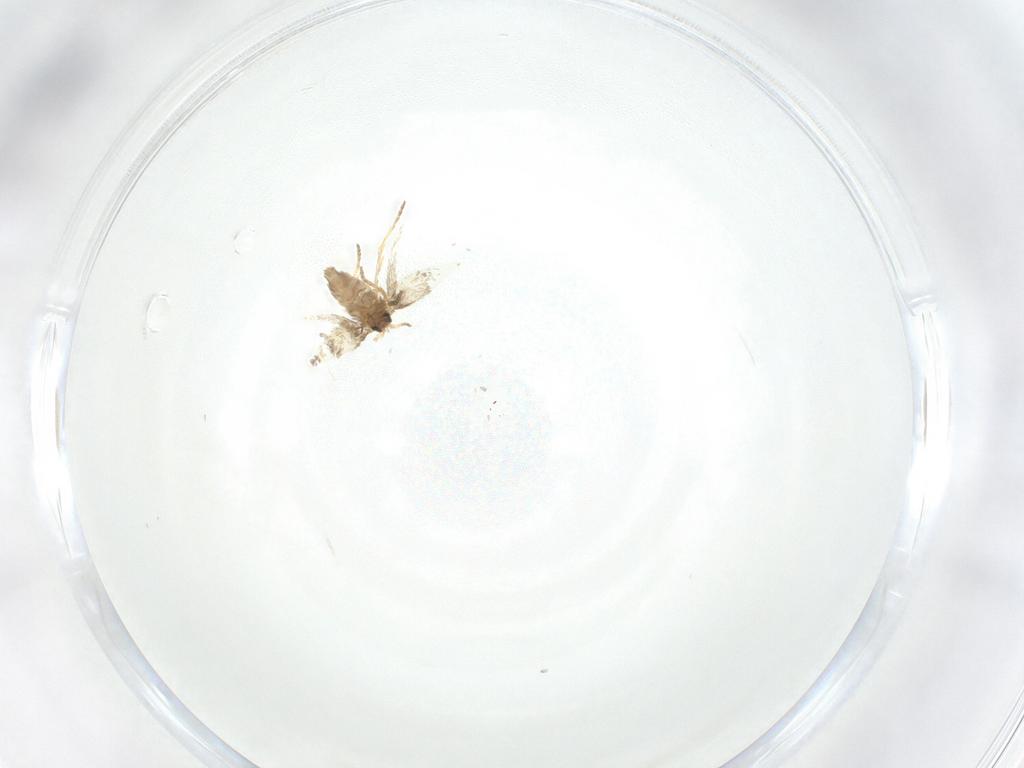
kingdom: Animalia
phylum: Arthropoda
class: Insecta
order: Lepidoptera
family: Nepticulidae
